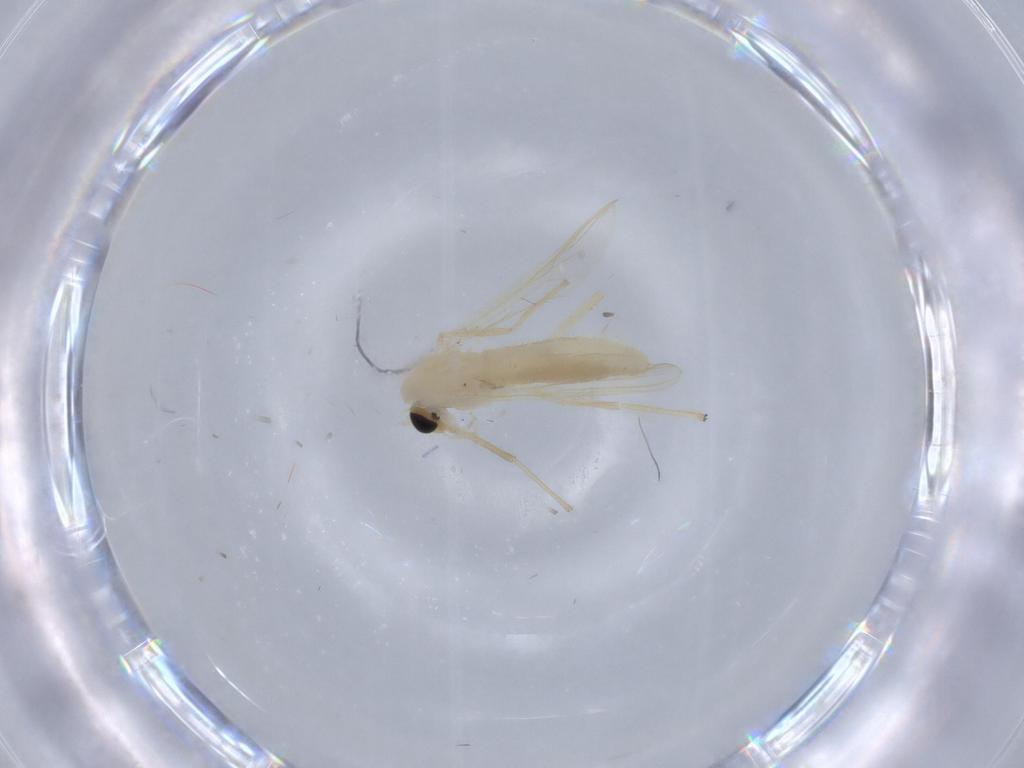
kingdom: Animalia
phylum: Arthropoda
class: Insecta
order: Diptera
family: Chironomidae
